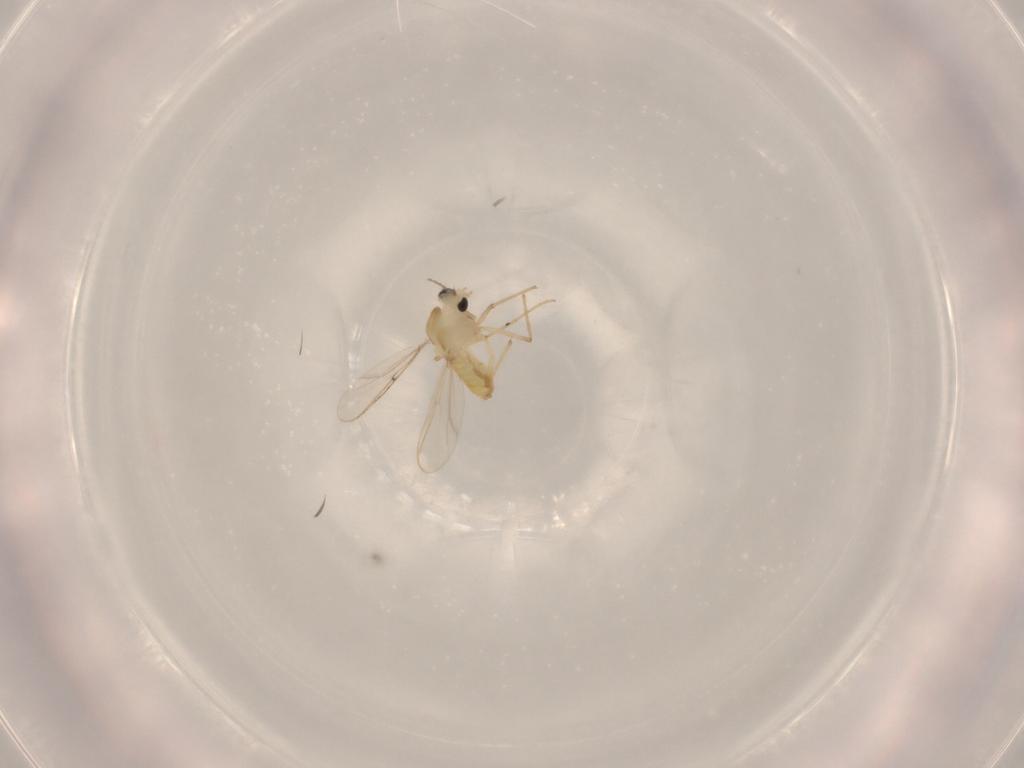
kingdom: Animalia
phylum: Arthropoda
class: Insecta
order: Diptera
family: Chironomidae
